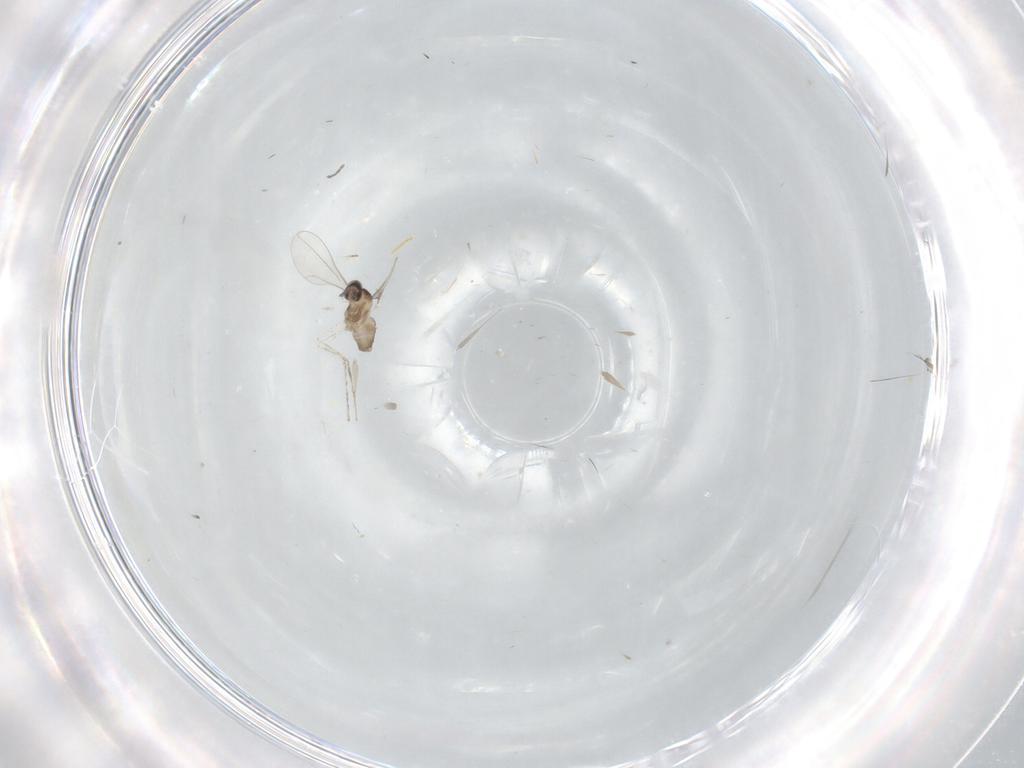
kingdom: Animalia
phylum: Arthropoda
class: Insecta
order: Diptera
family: Cecidomyiidae
